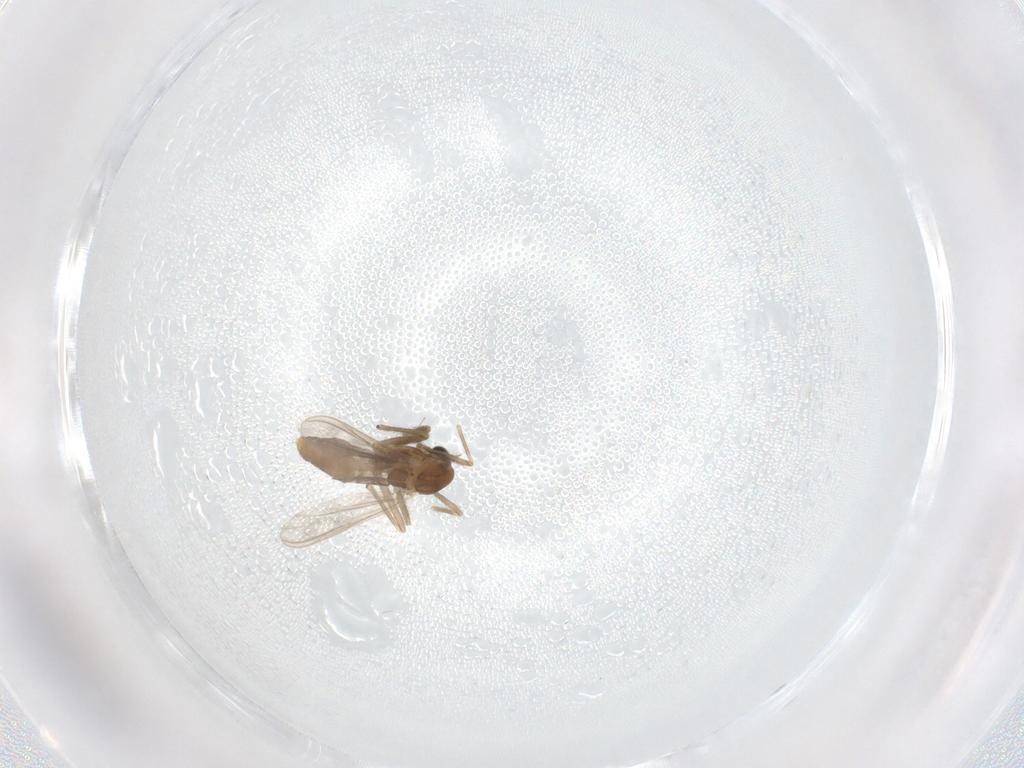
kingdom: Animalia
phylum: Arthropoda
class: Insecta
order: Diptera
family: Chironomidae
